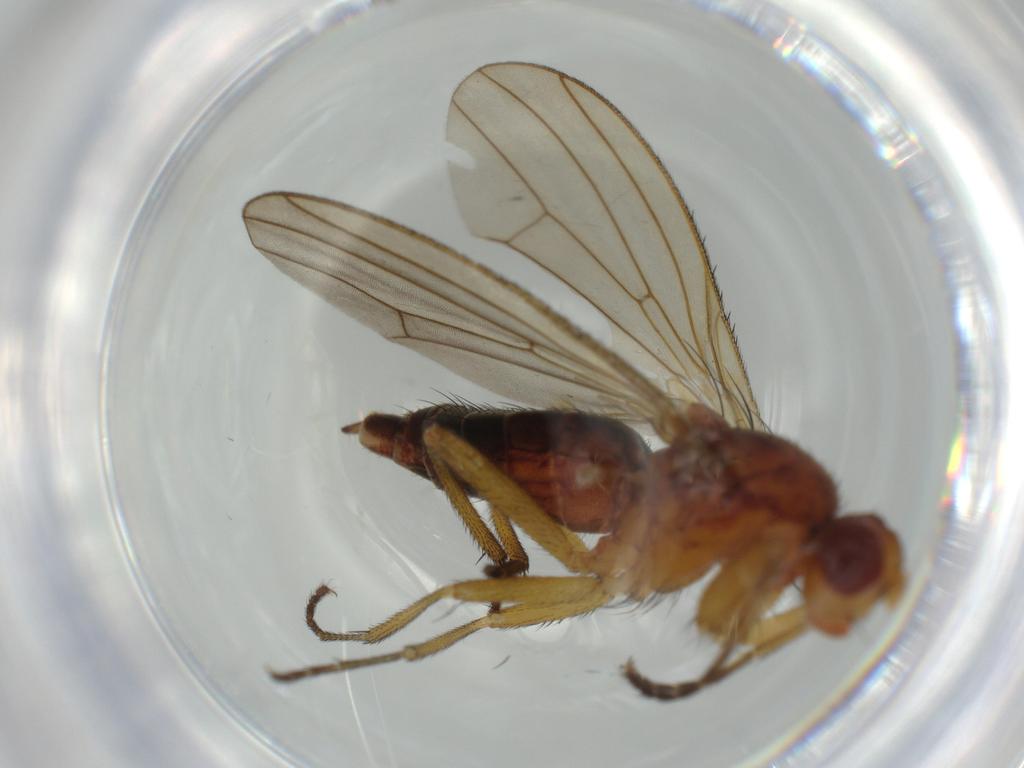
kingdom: Animalia
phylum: Arthropoda
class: Insecta
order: Diptera
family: Heleomyzidae
